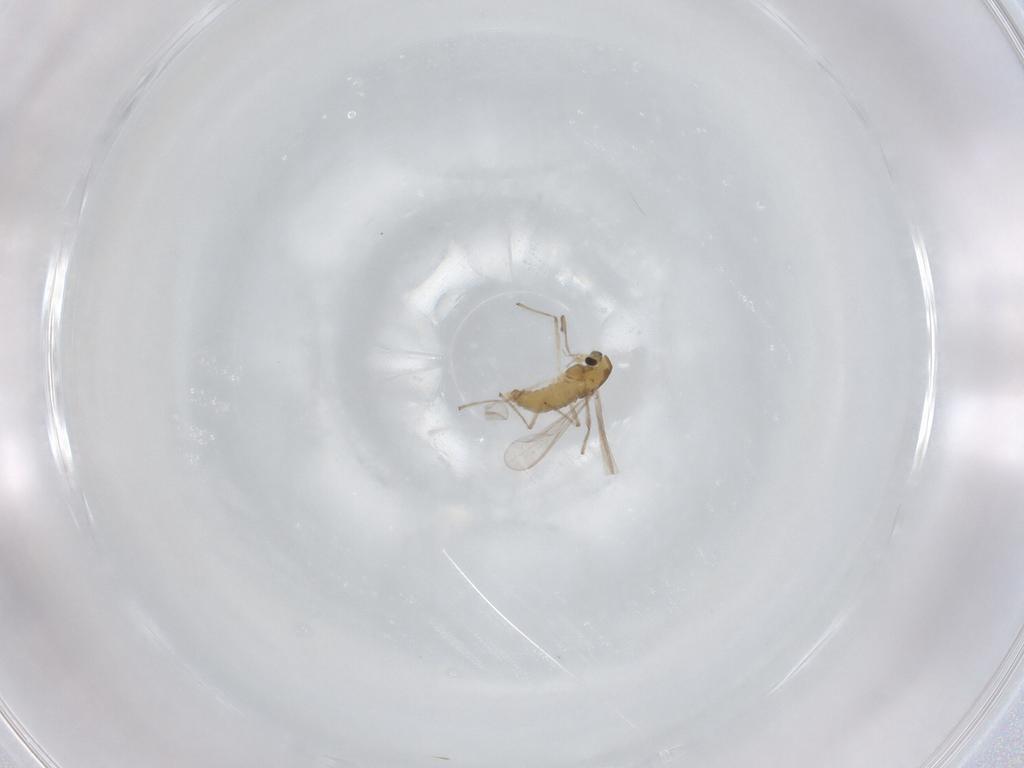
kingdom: Animalia
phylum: Arthropoda
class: Insecta
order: Diptera
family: Chironomidae
